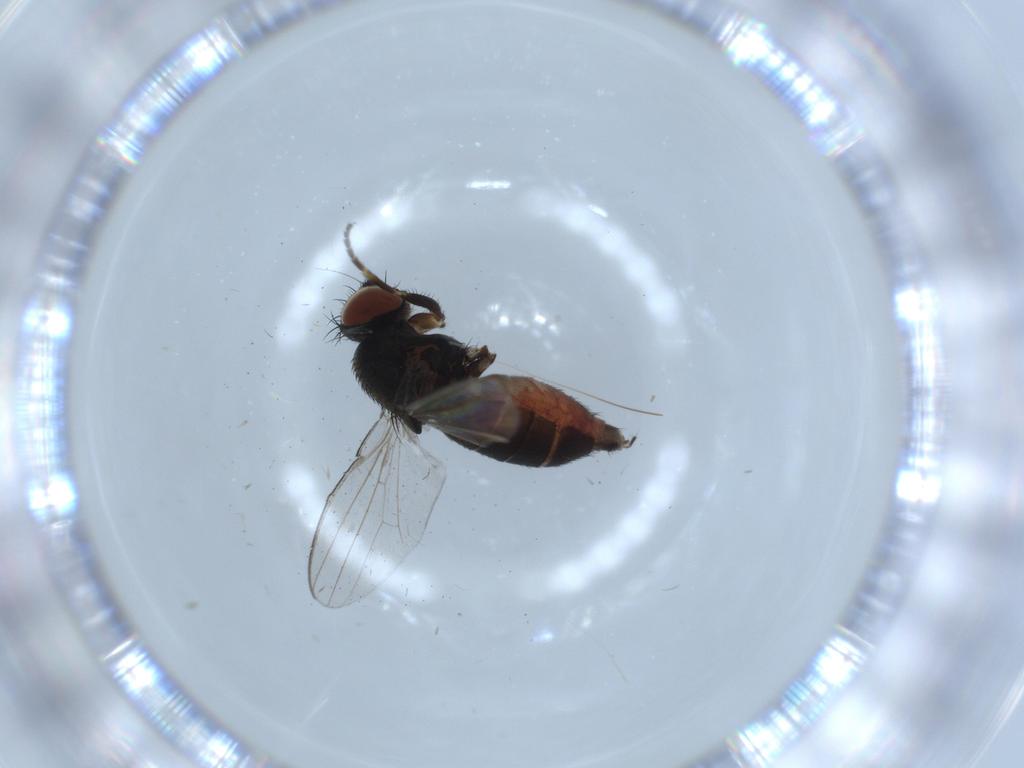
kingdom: Animalia
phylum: Arthropoda
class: Insecta
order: Diptera
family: Milichiidae
